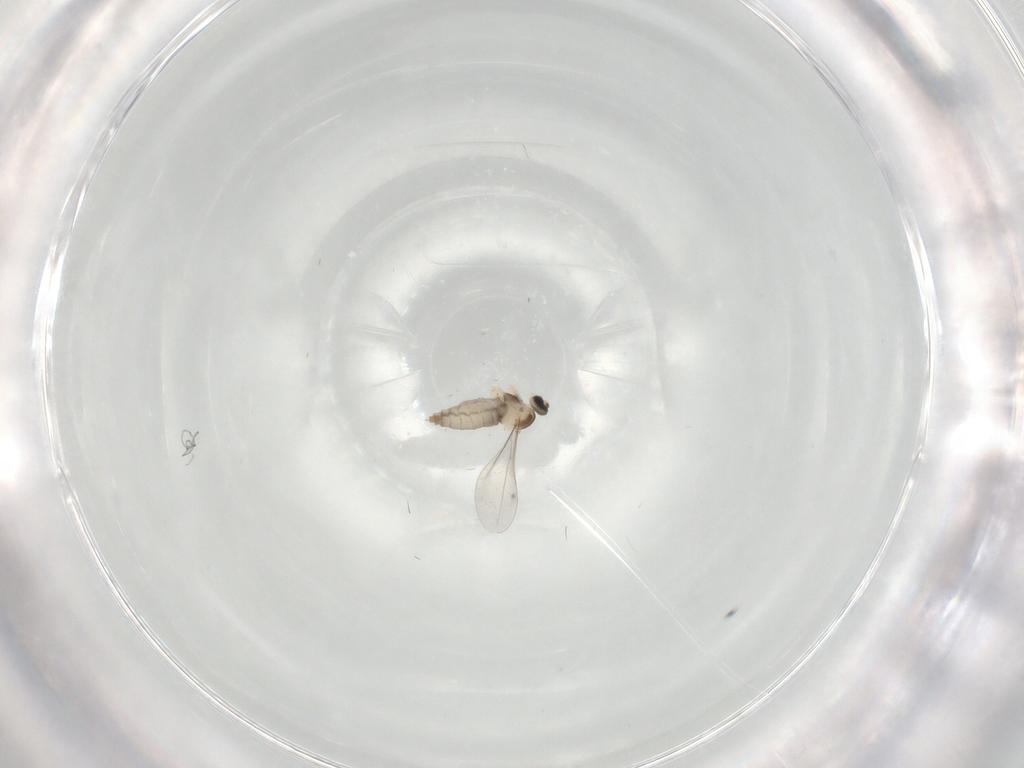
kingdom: Animalia
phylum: Arthropoda
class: Insecta
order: Diptera
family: Cecidomyiidae
